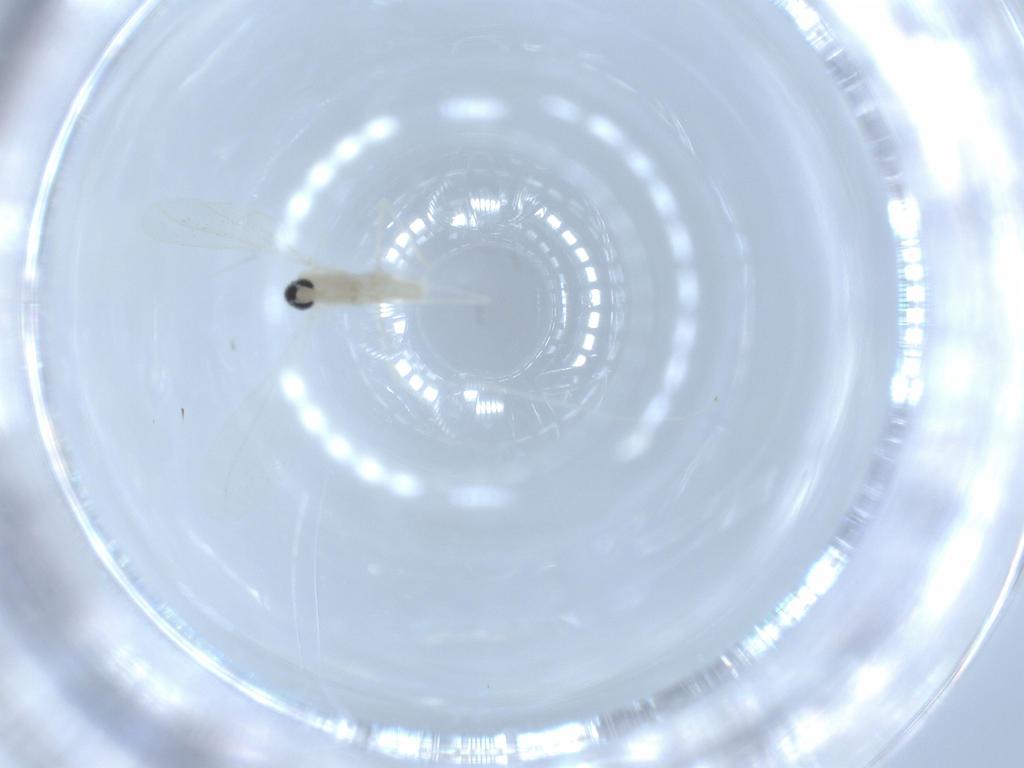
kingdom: Animalia
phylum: Arthropoda
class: Insecta
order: Diptera
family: Cecidomyiidae
